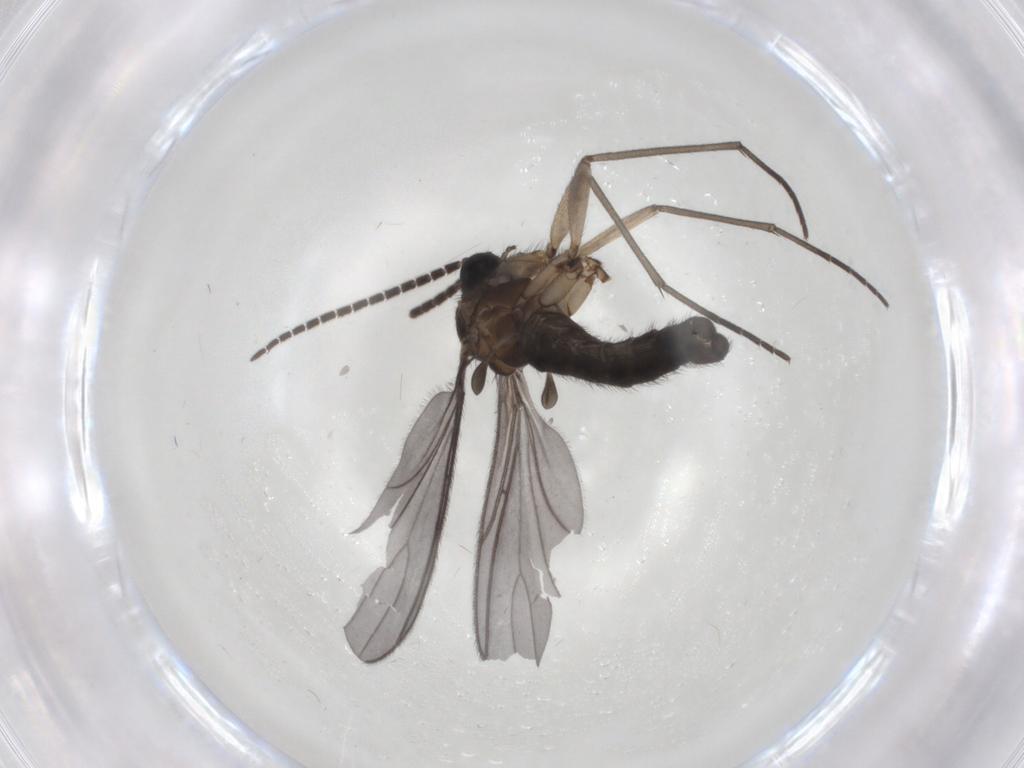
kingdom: Animalia
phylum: Arthropoda
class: Insecta
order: Diptera
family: Sciaridae
